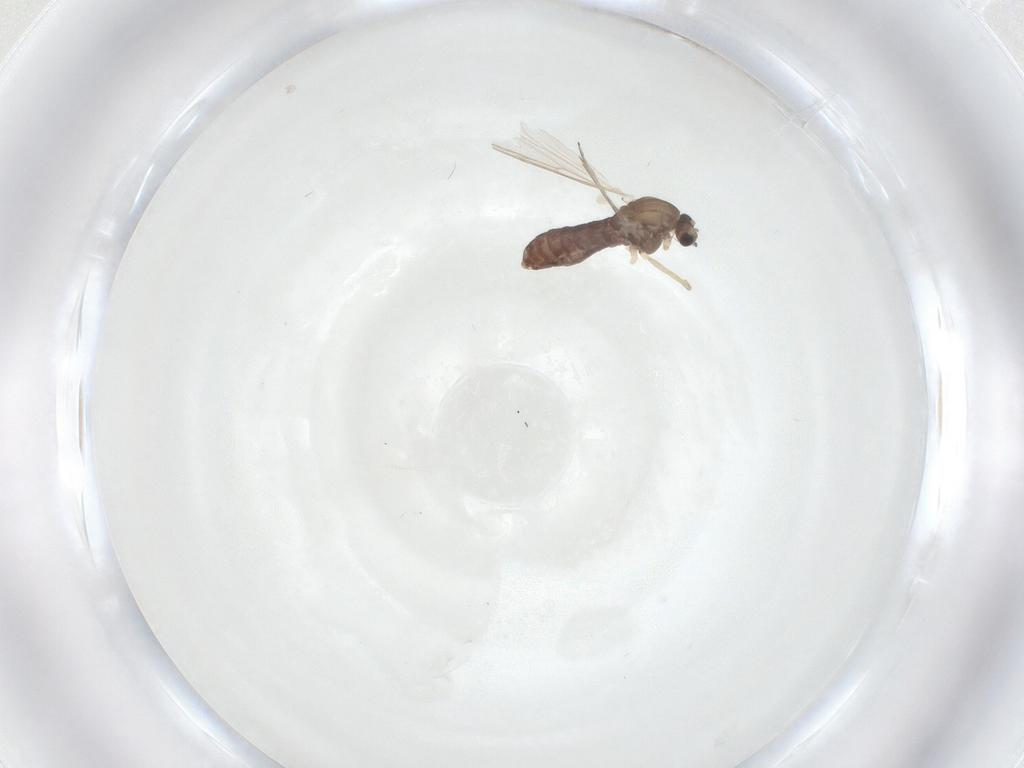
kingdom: Animalia
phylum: Arthropoda
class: Insecta
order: Diptera
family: Chironomidae
